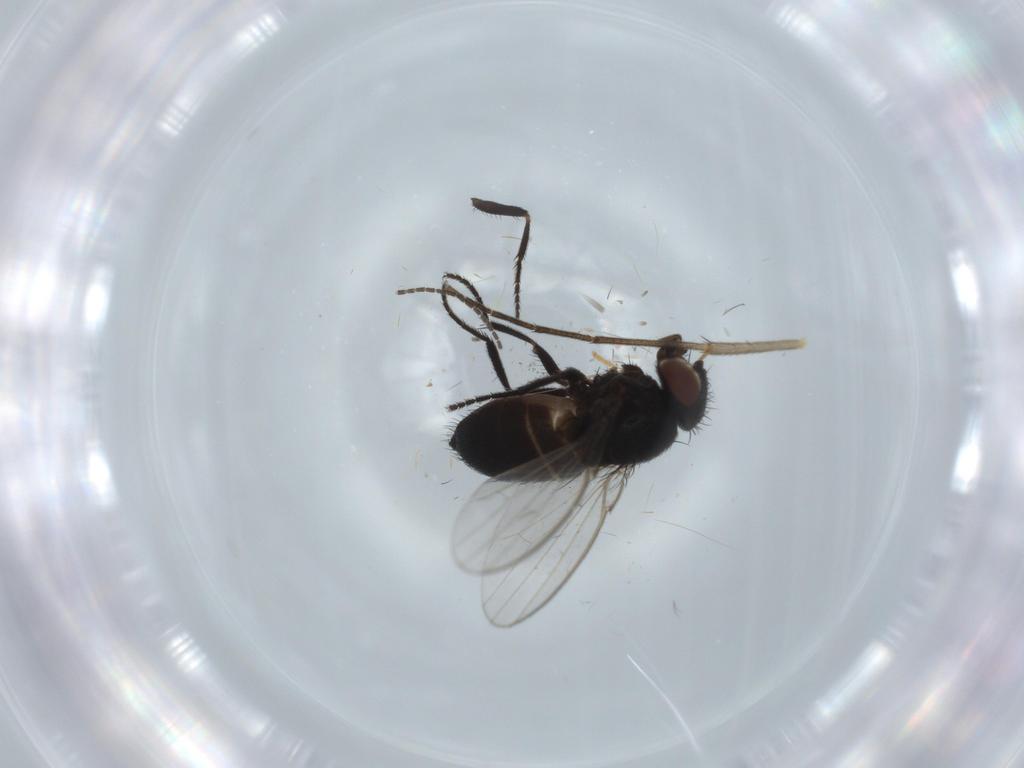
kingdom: Animalia
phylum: Arthropoda
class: Insecta
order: Diptera
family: Milichiidae
